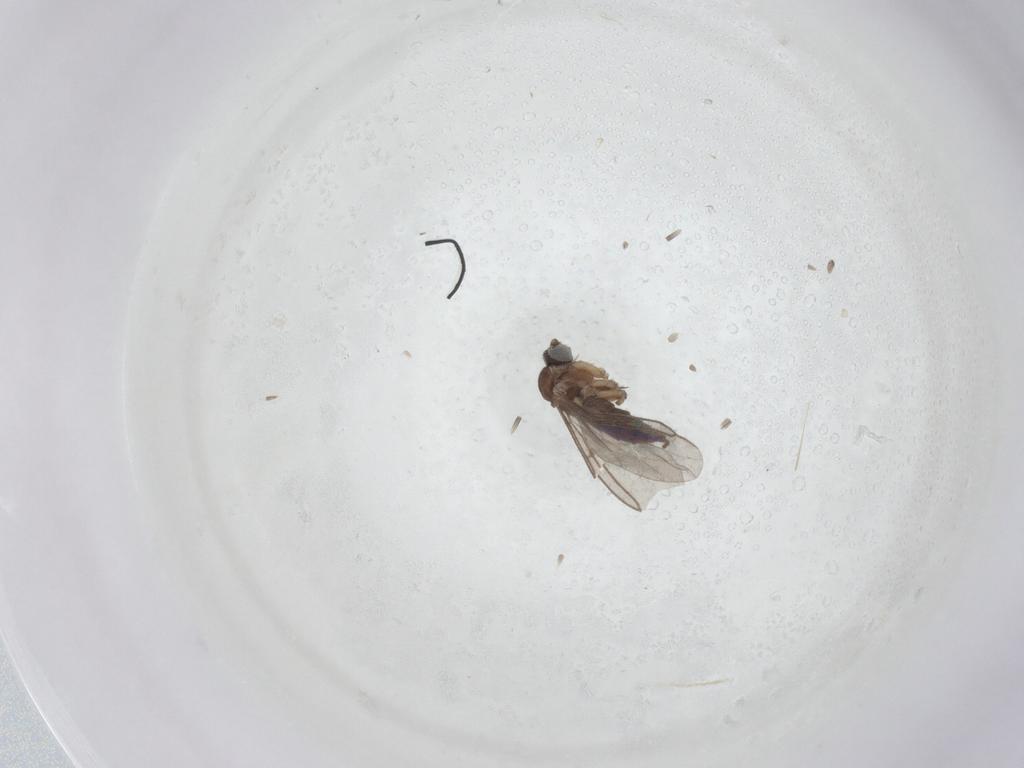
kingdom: Animalia
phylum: Arthropoda
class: Insecta
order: Diptera
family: Sciaridae
